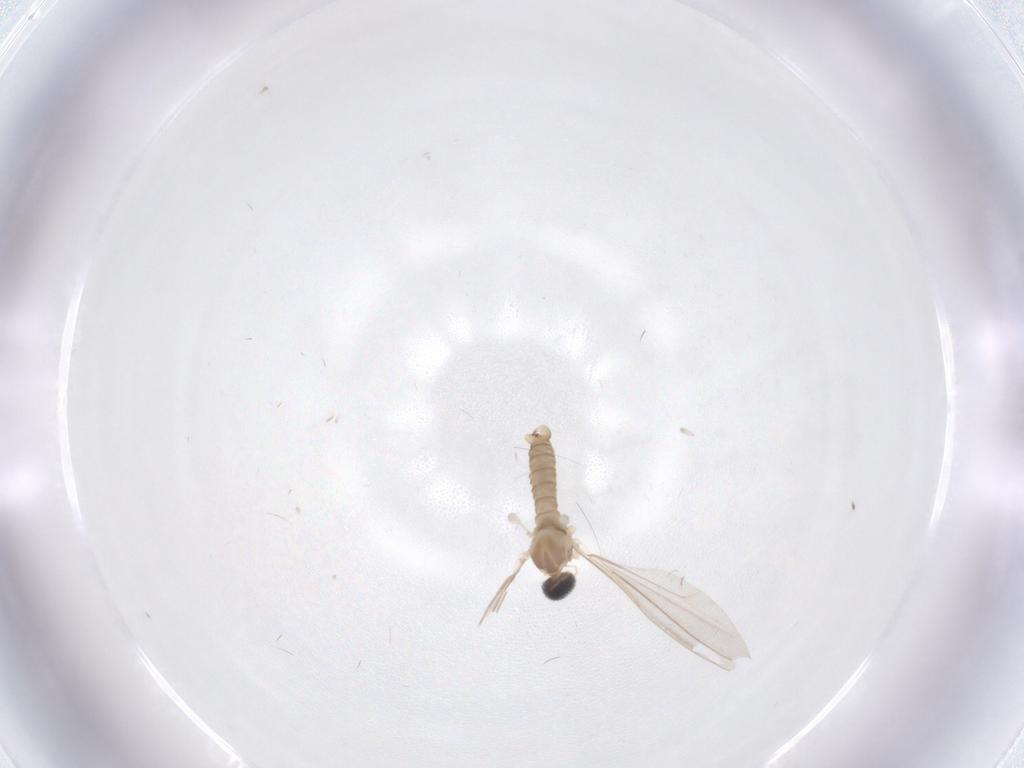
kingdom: Animalia
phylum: Arthropoda
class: Insecta
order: Diptera
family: Cecidomyiidae
